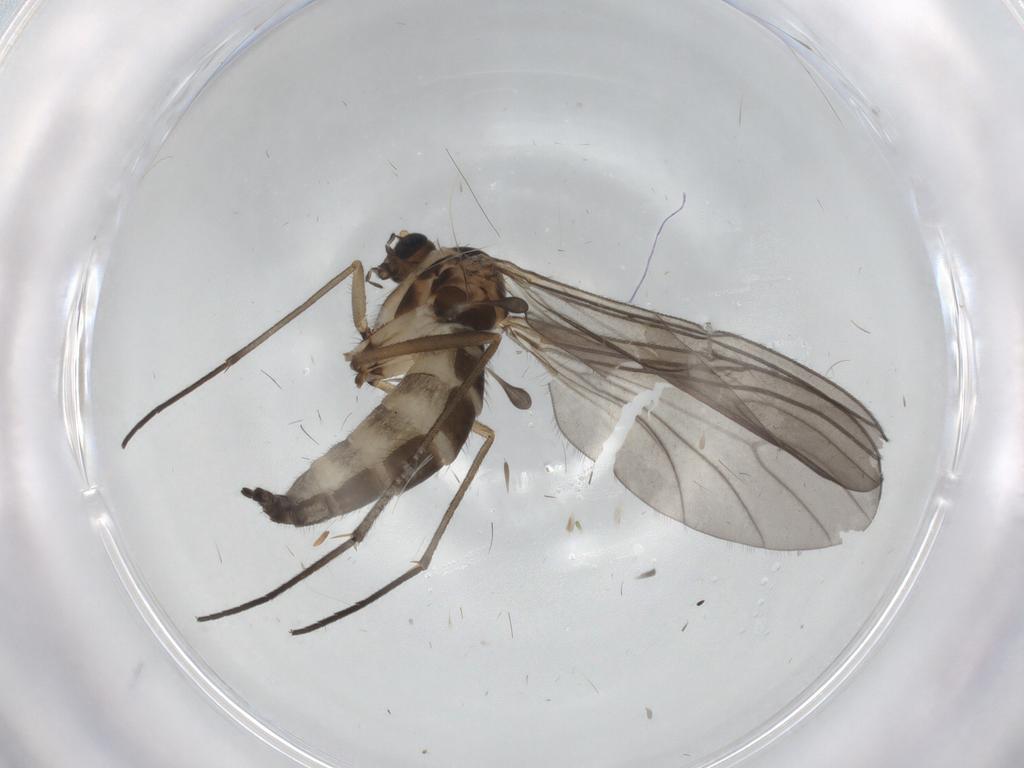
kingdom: Animalia
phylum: Arthropoda
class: Insecta
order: Diptera
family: Sciaridae
